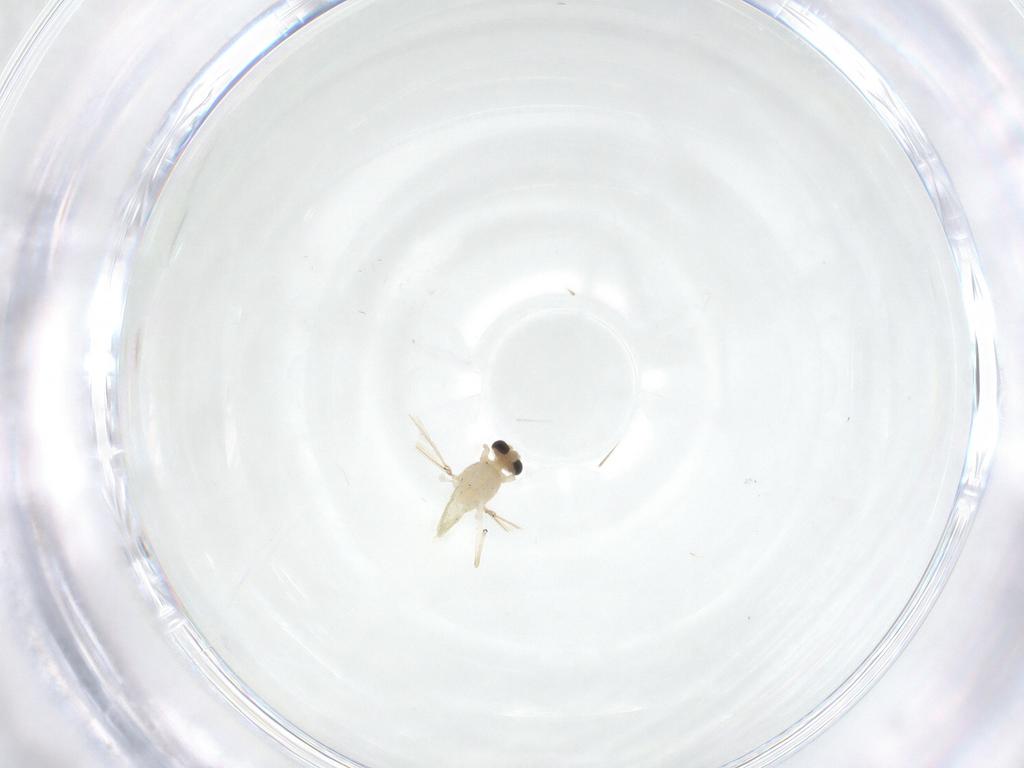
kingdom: Animalia
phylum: Arthropoda
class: Insecta
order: Diptera
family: Chironomidae
